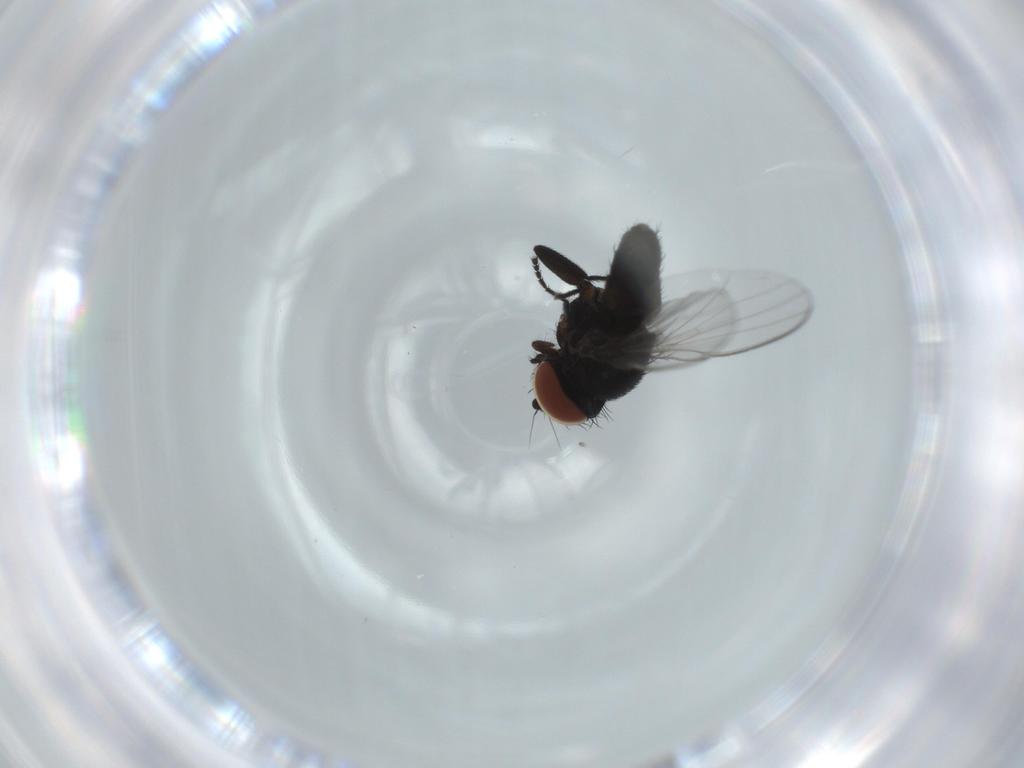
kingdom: Animalia
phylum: Arthropoda
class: Insecta
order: Diptera
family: Milichiidae
